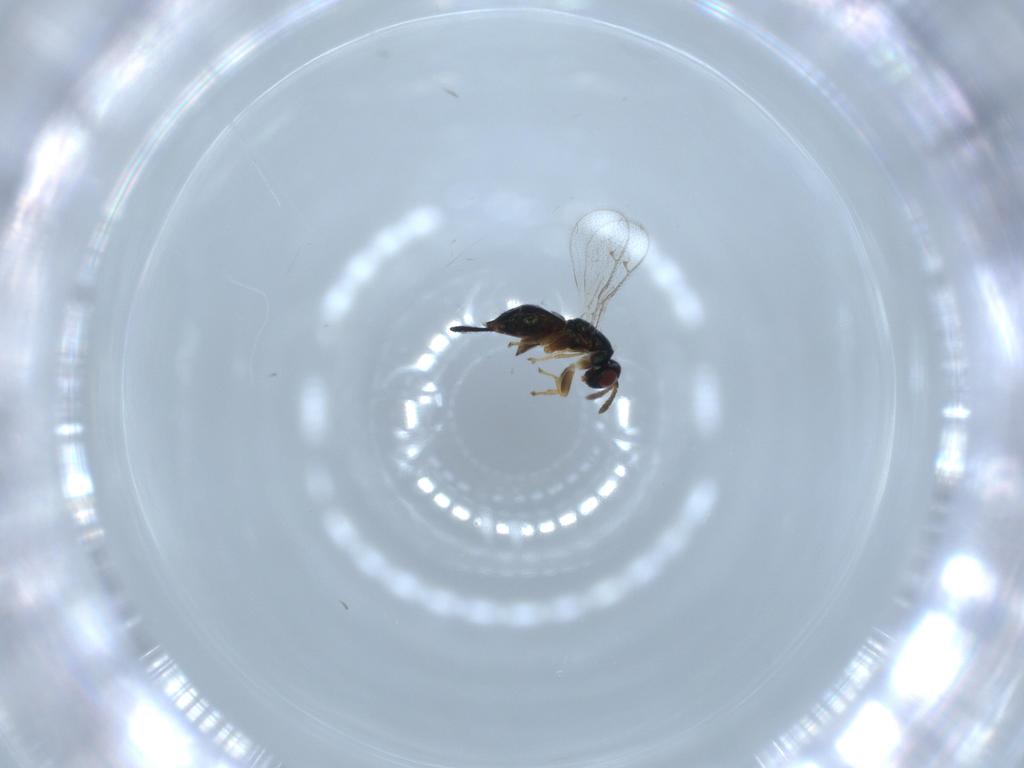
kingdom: Animalia
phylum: Arthropoda
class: Insecta
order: Hymenoptera
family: Torymidae
